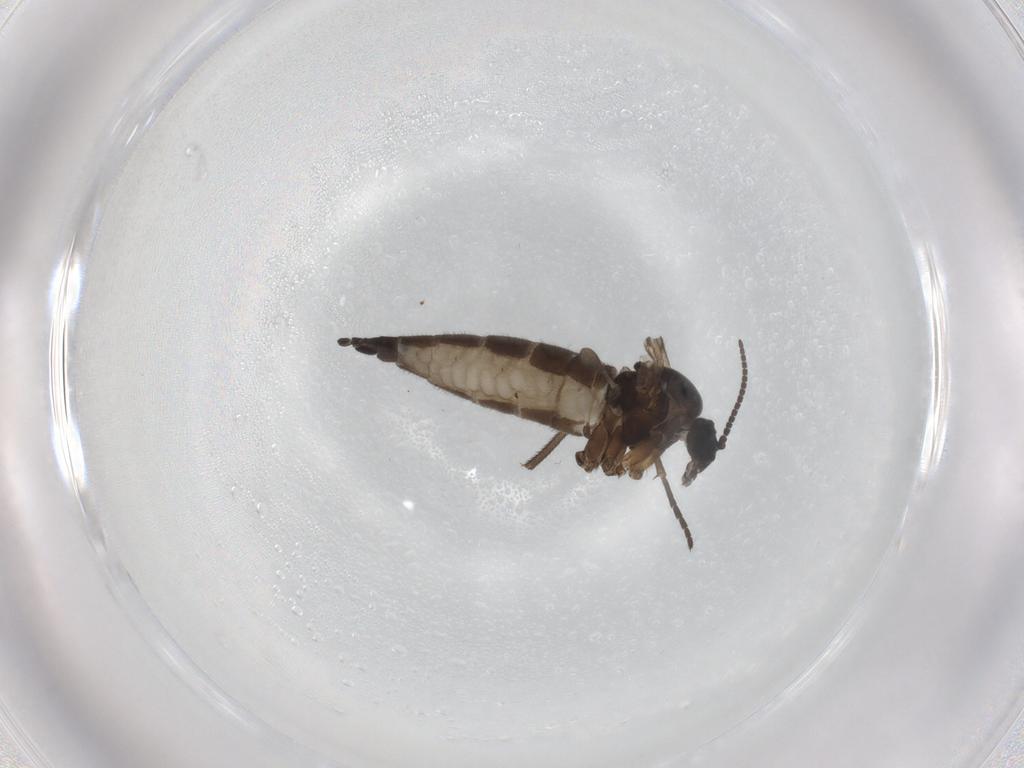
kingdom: Animalia
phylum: Arthropoda
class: Insecta
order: Diptera
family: Sciaridae
